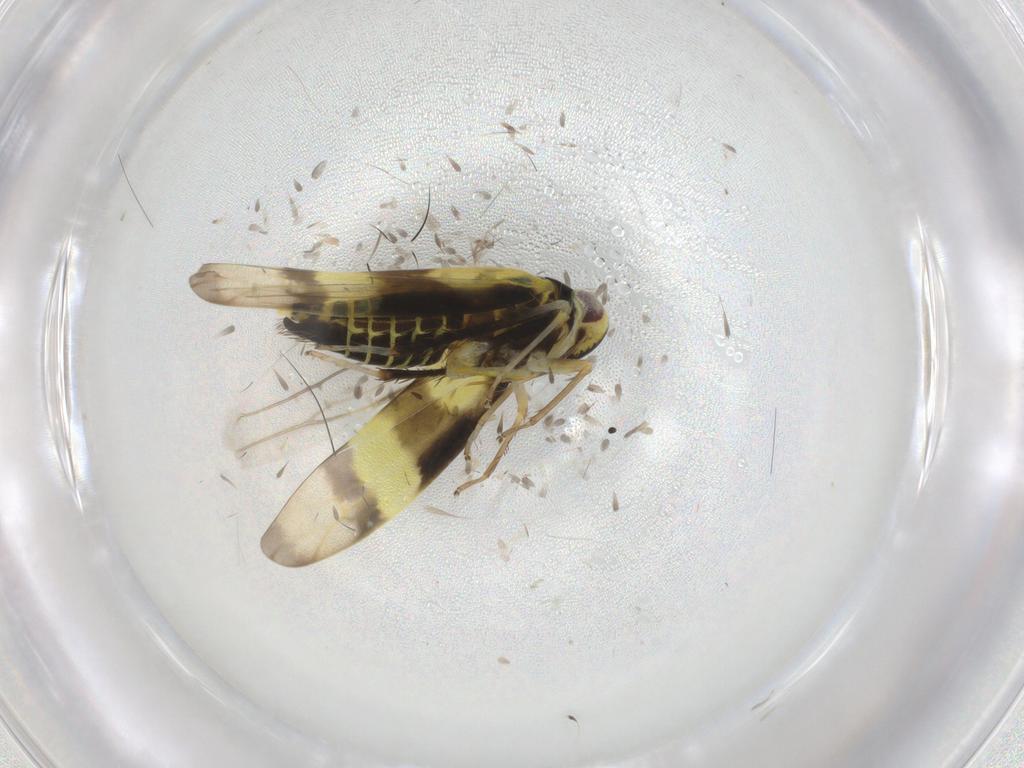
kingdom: Animalia
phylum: Arthropoda
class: Insecta
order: Hemiptera
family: Cicadellidae
